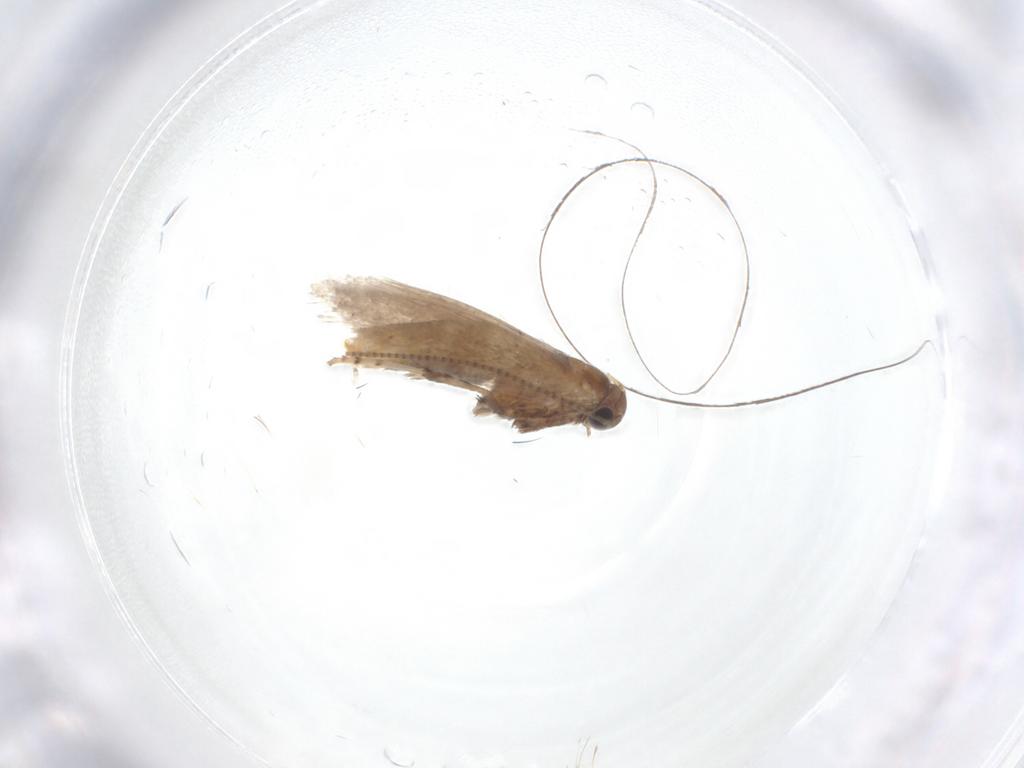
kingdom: Animalia
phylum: Arthropoda
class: Insecta
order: Lepidoptera
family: Gracillariidae
